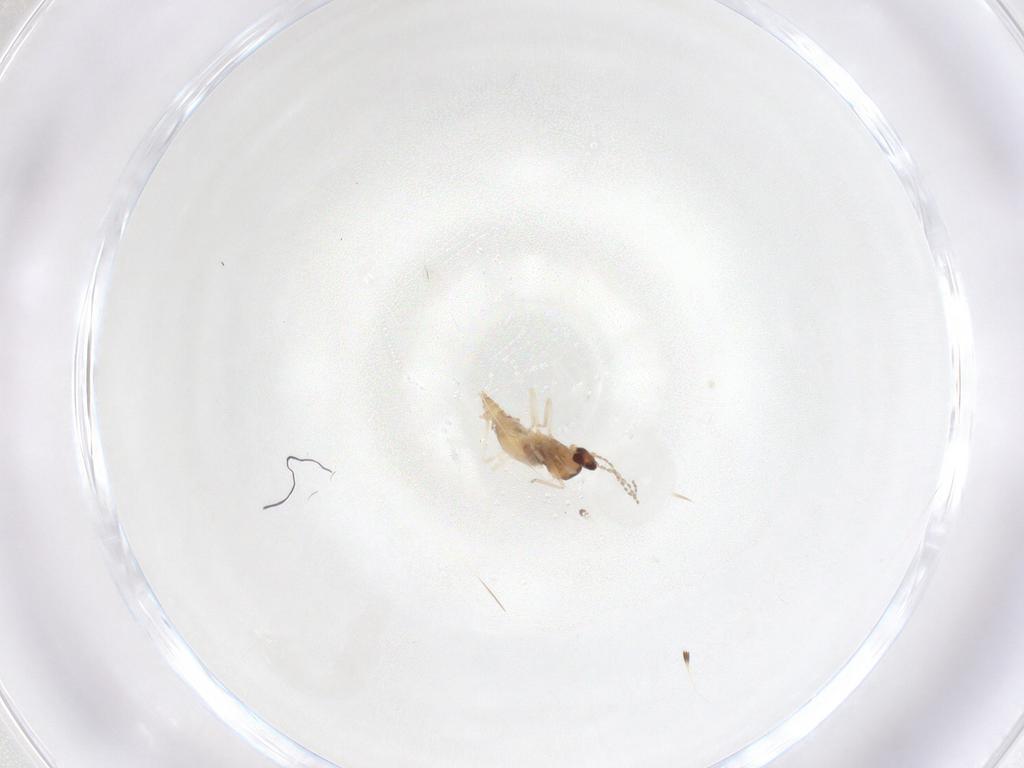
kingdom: Animalia
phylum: Arthropoda
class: Insecta
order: Diptera
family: Cecidomyiidae
